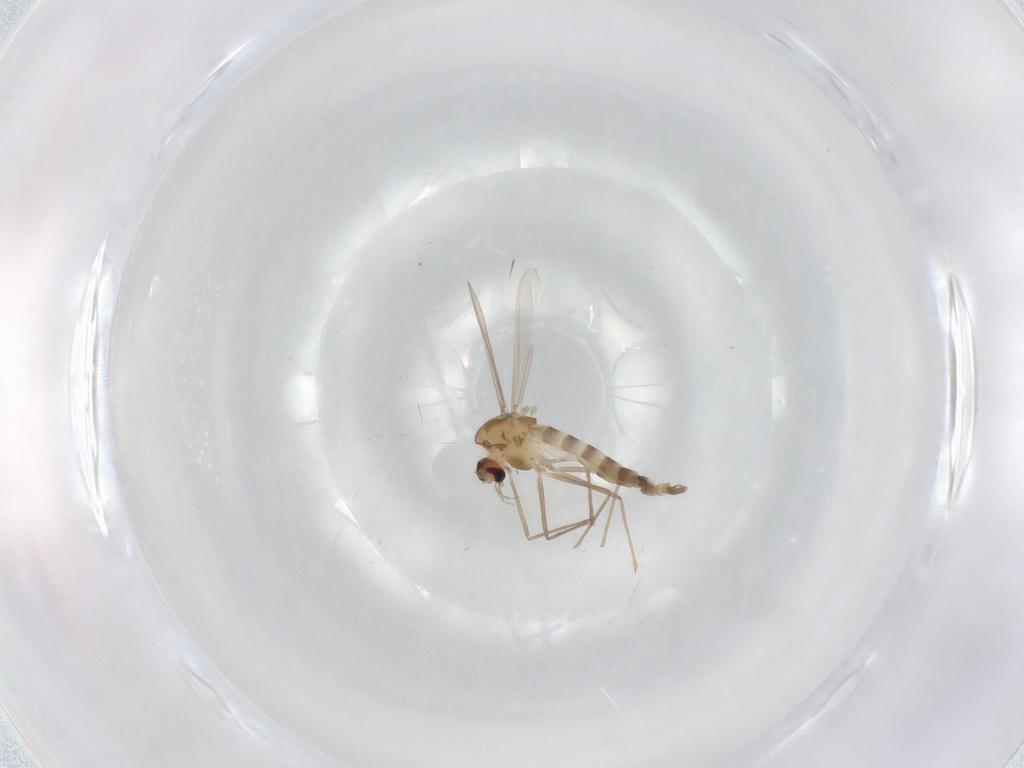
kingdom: Animalia
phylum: Arthropoda
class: Insecta
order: Diptera
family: Chironomidae
